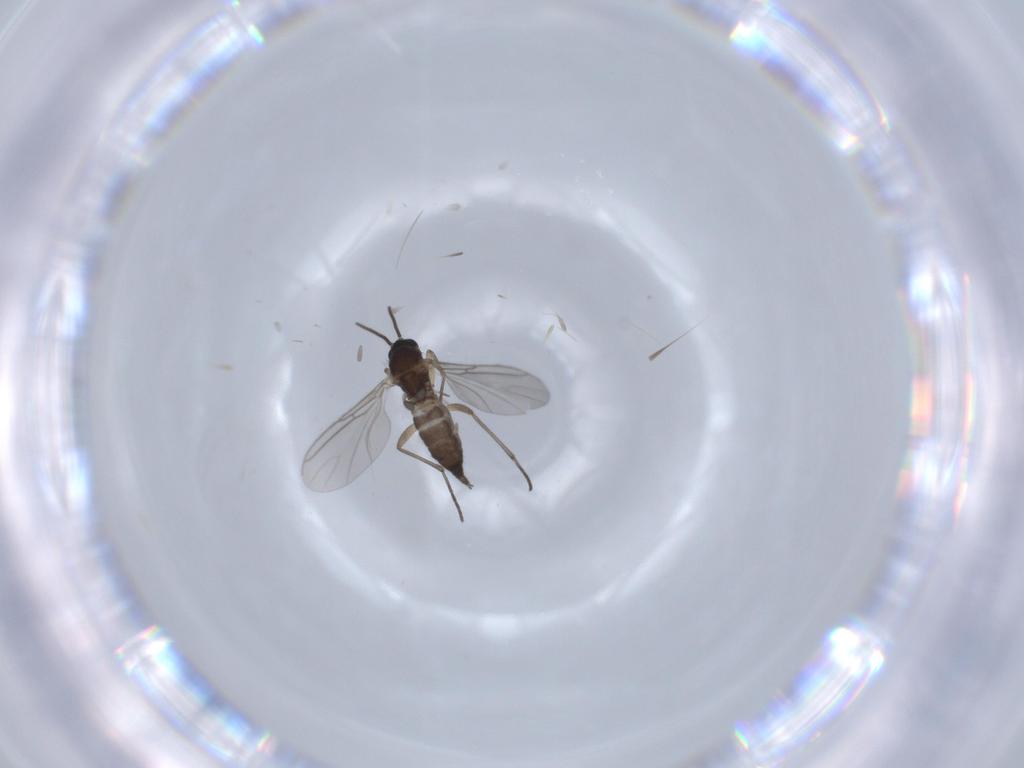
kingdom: Animalia
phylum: Arthropoda
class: Insecta
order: Diptera
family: Sciaridae
